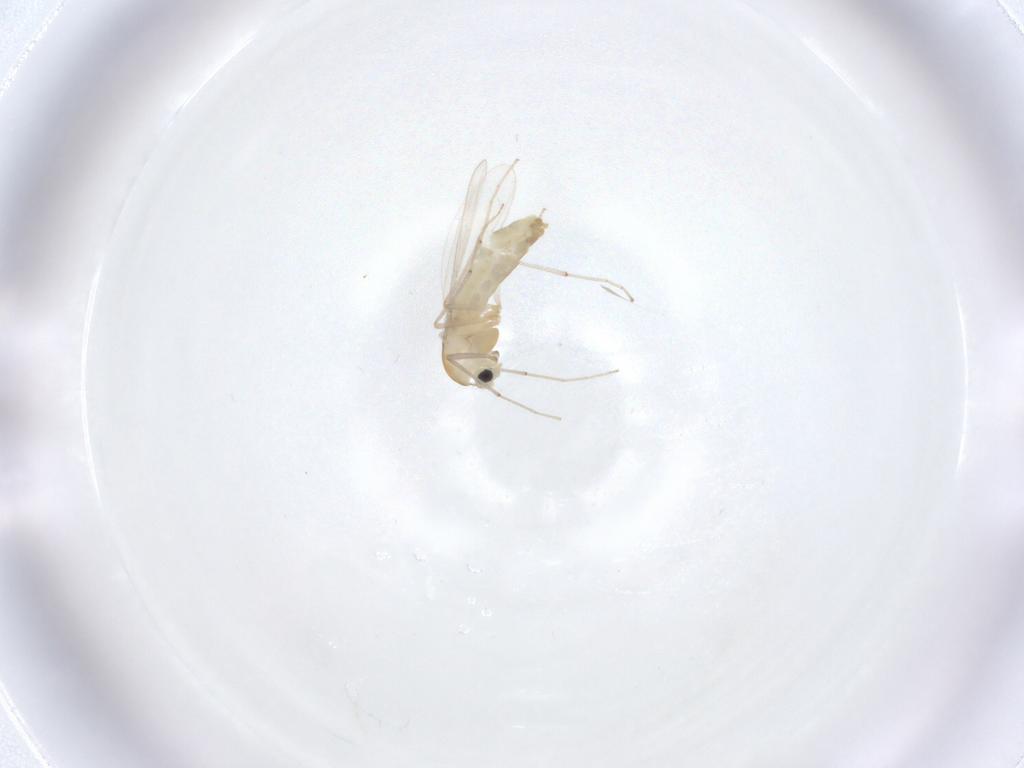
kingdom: Animalia
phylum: Arthropoda
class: Insecta
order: Diptera
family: Chironomidae
